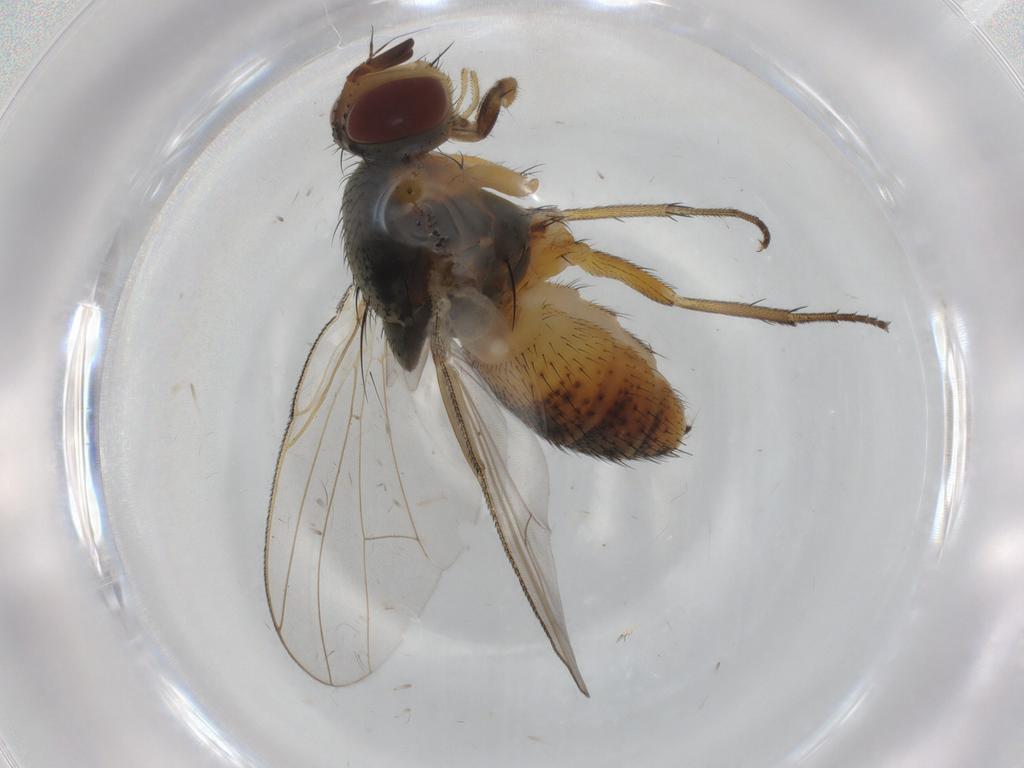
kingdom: Animalia
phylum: Arthropoda
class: Insecta
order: Diptera
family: Muscidae
